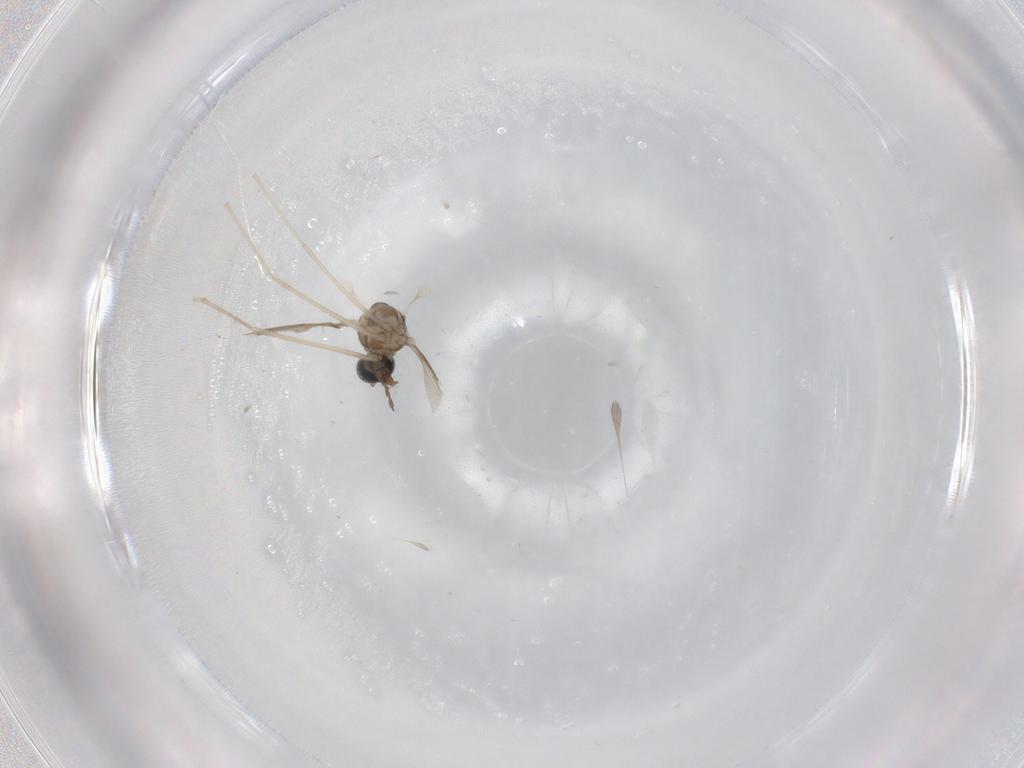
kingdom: Animalia
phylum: Arthropoda
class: Insecta
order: Diptera
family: Cecidomyiidae
